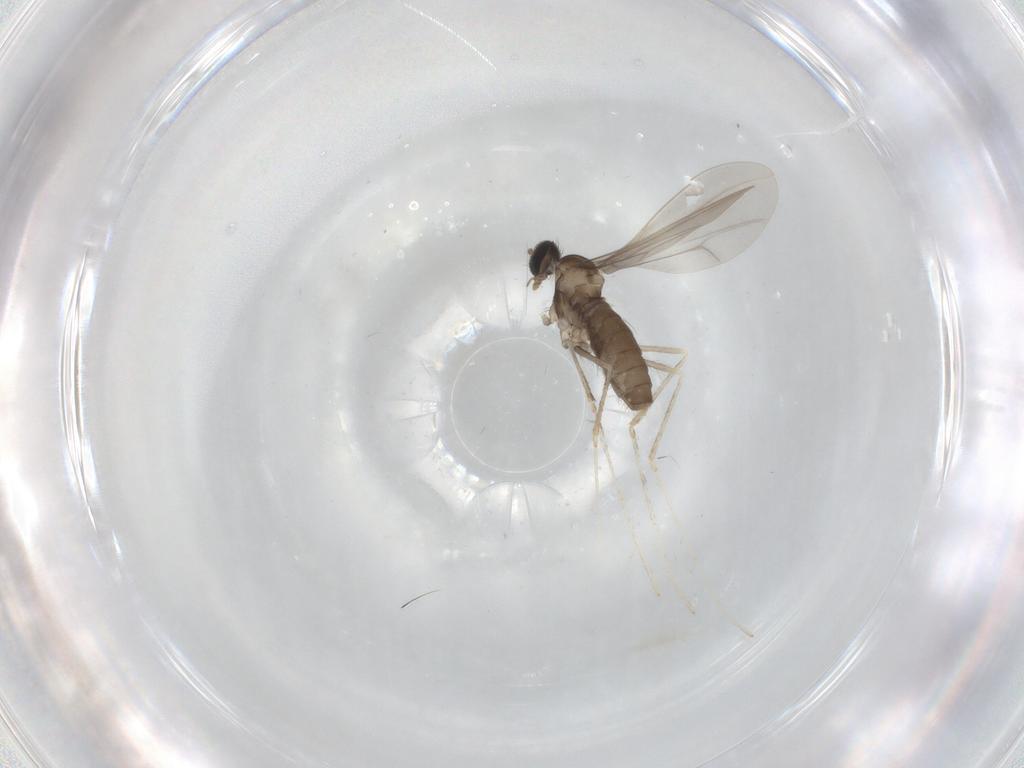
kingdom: Animalia
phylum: Arthropoda
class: Insecta
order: Diptera
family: Sciaridae
